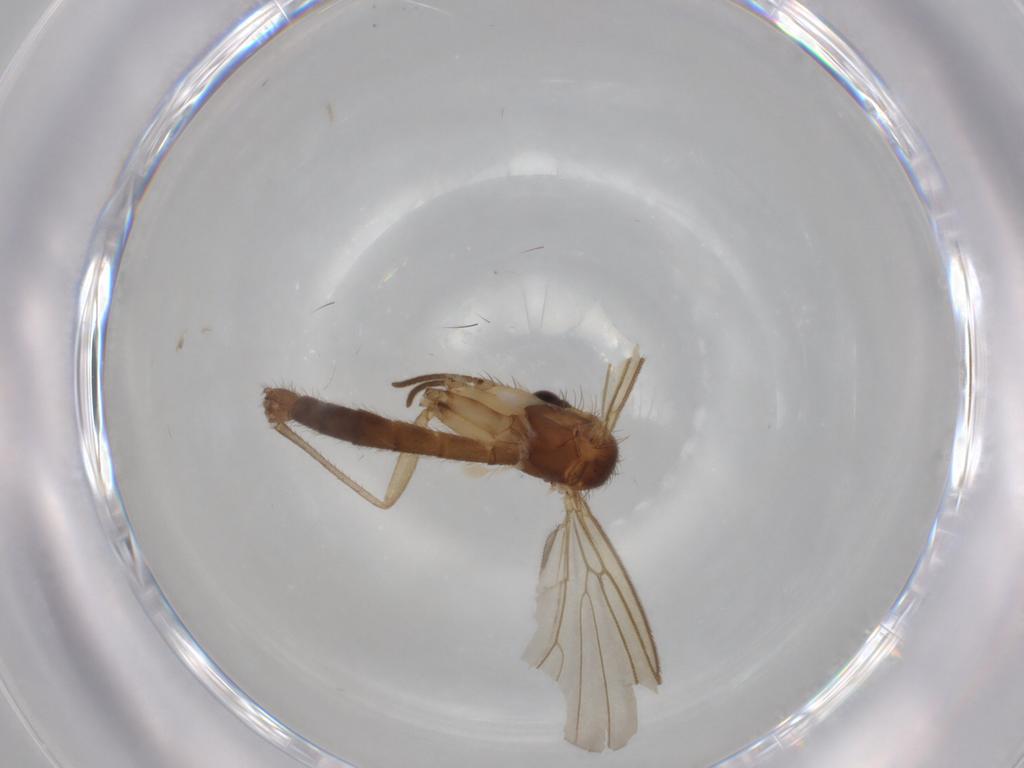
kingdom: Animalia
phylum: Arthropoda
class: Insecta
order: Diptera
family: Mycetophilidae
